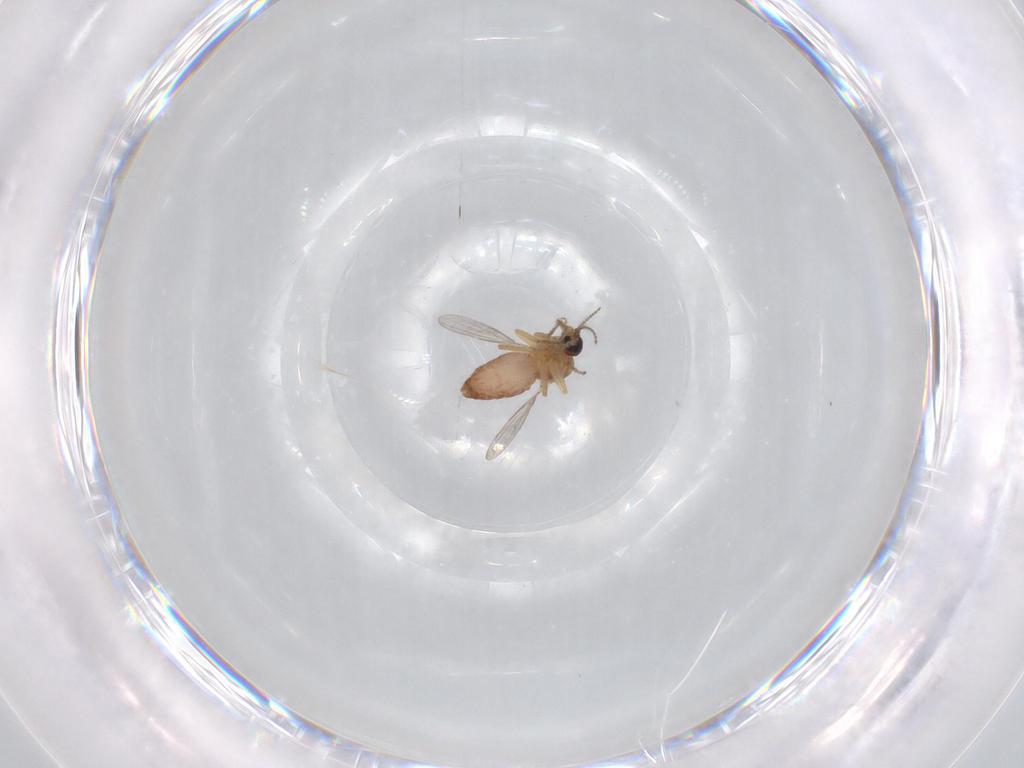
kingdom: Animalia
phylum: Arthropoda
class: Insecta
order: Diptera
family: Ceratopogonidae
